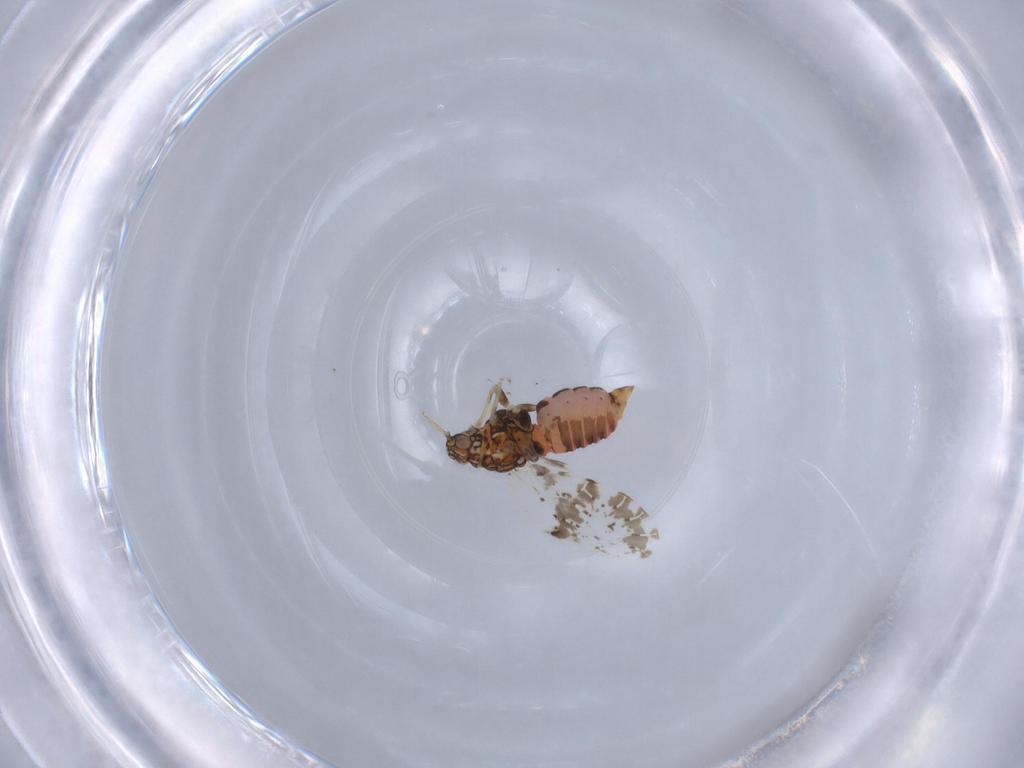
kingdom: Animalia
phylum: Arthropoda
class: Insecta
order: Hemiptera
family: Psylloidea_incertae_sedis
